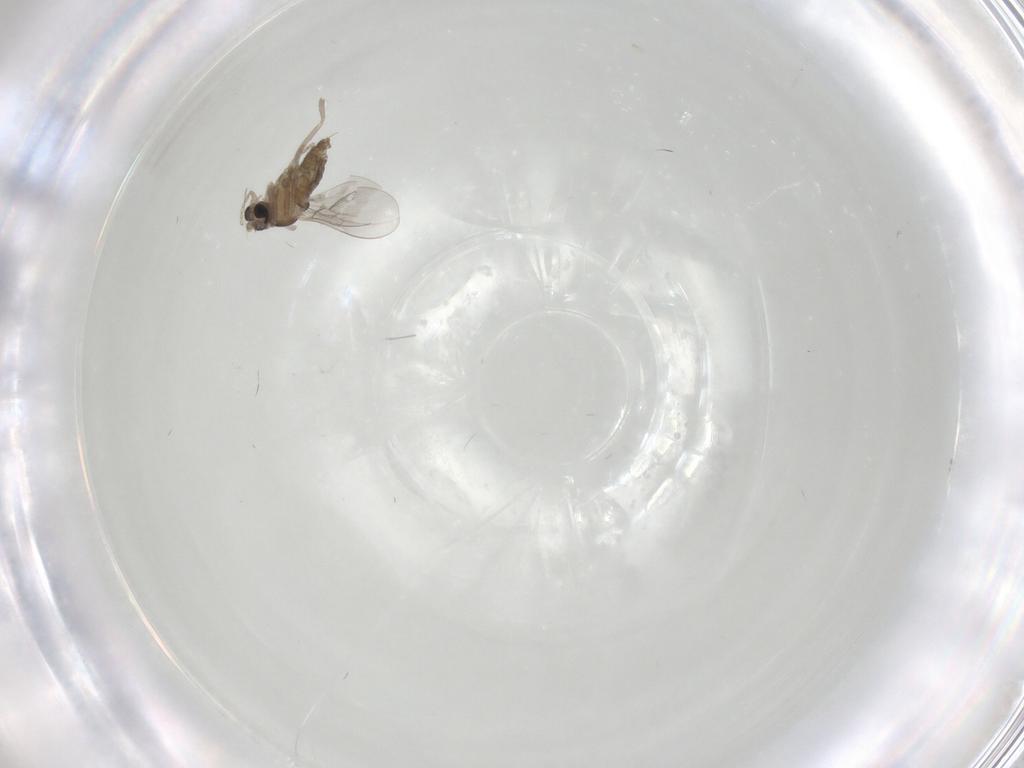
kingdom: Animalia
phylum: Arthropoda
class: Insecta
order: Diptera
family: Cecidomyiidae
